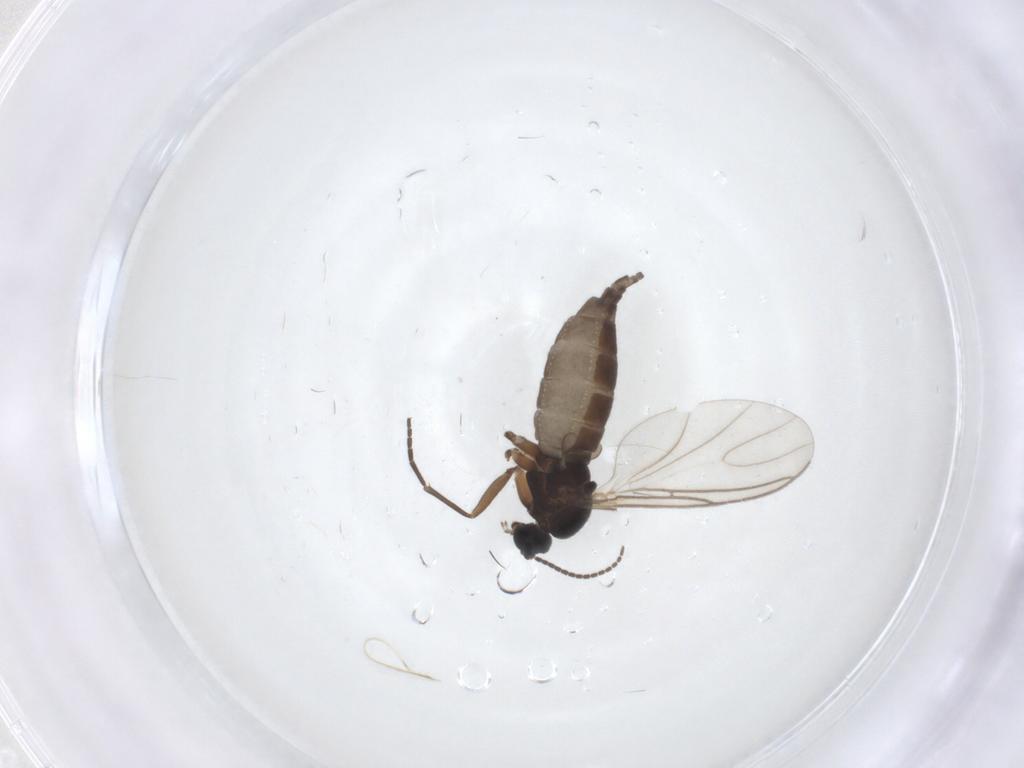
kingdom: Animalia
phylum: Arthropoda
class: Insecta
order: Diptera
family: Sciaridae
